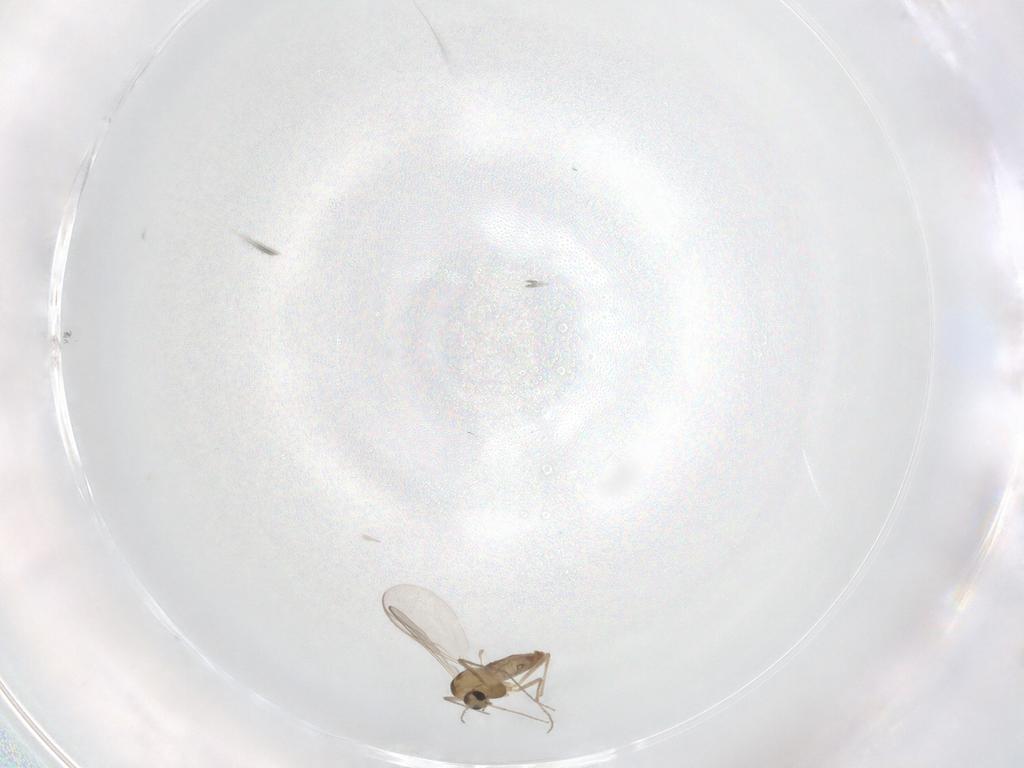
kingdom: Animalia
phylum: Arthropoda
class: Insecta
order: Diptera
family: Chironomidae
